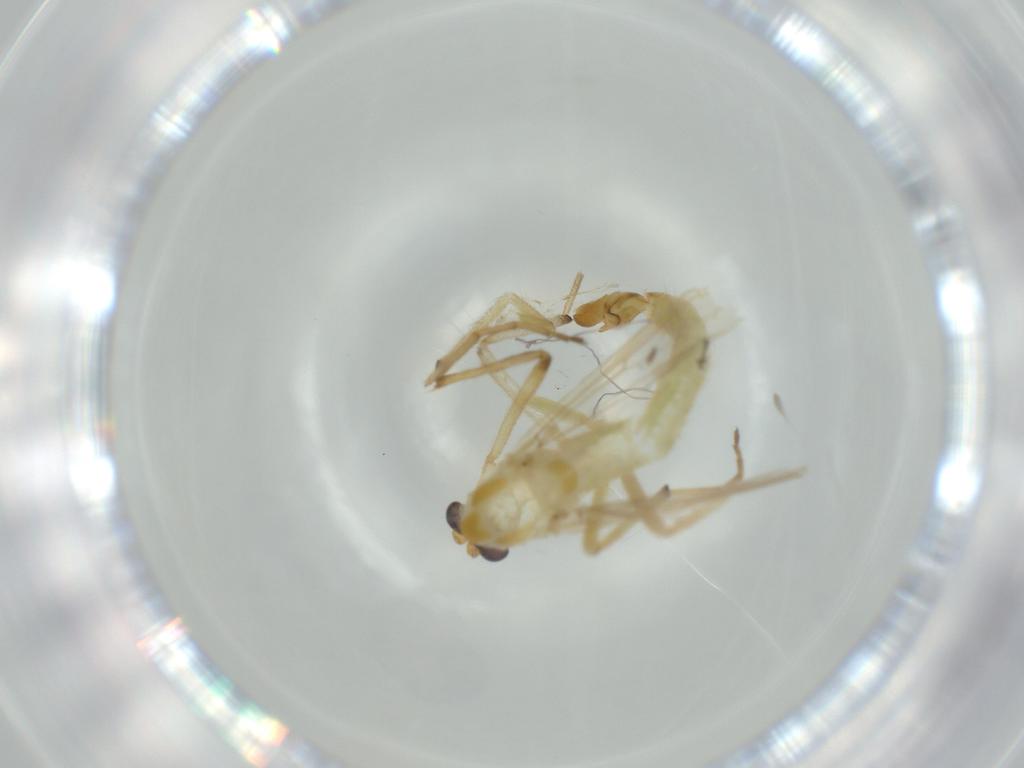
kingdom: Animalia
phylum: Arthropoda
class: Insecta
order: Diptera
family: Chironomidae
